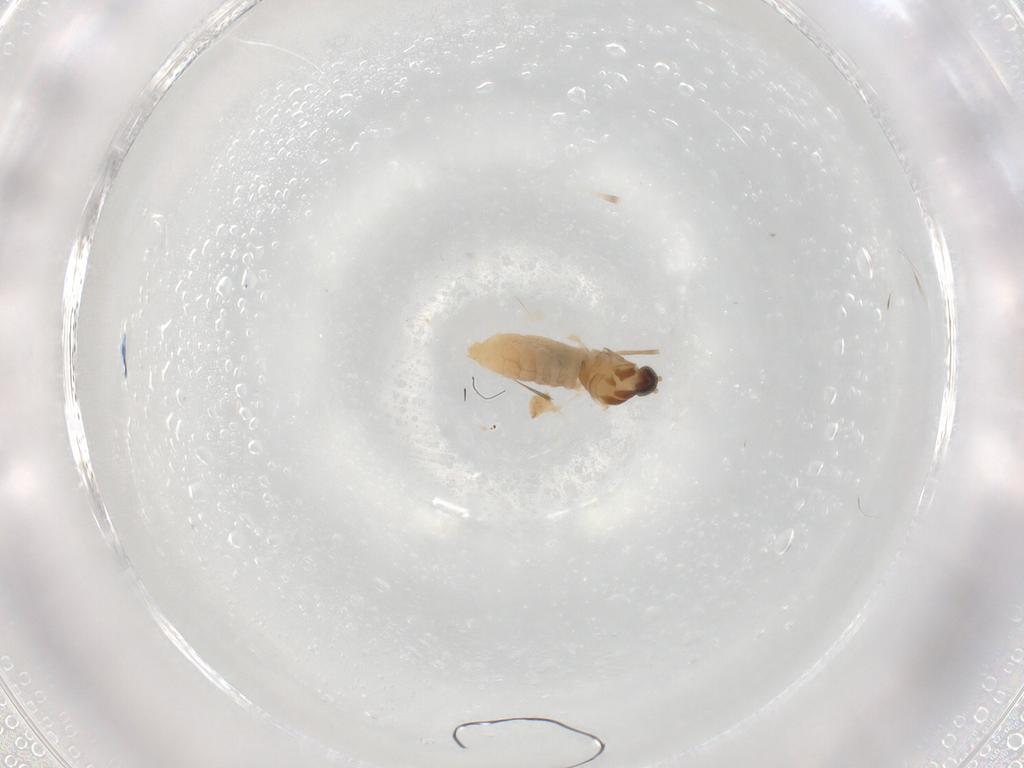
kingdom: Animalia
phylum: Arthropoda
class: Insecta
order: Diptera
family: Cecidomyiidae
